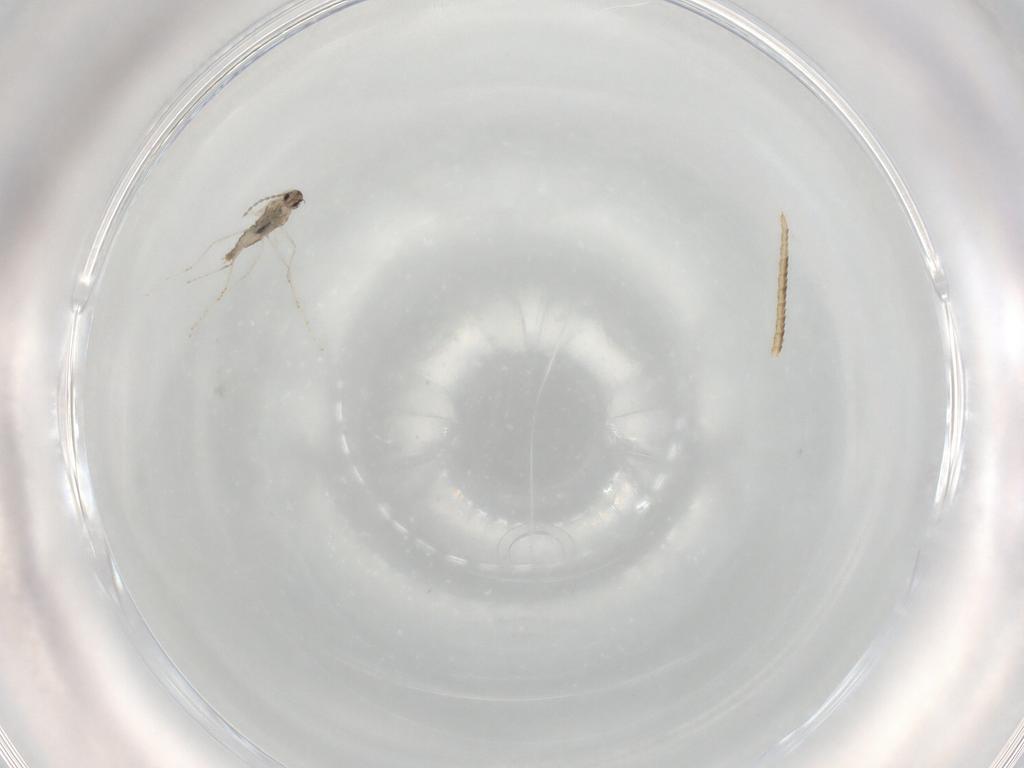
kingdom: Animalia
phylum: Arthropoda
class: Insecta
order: Diptera
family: Cecidomyiidae
